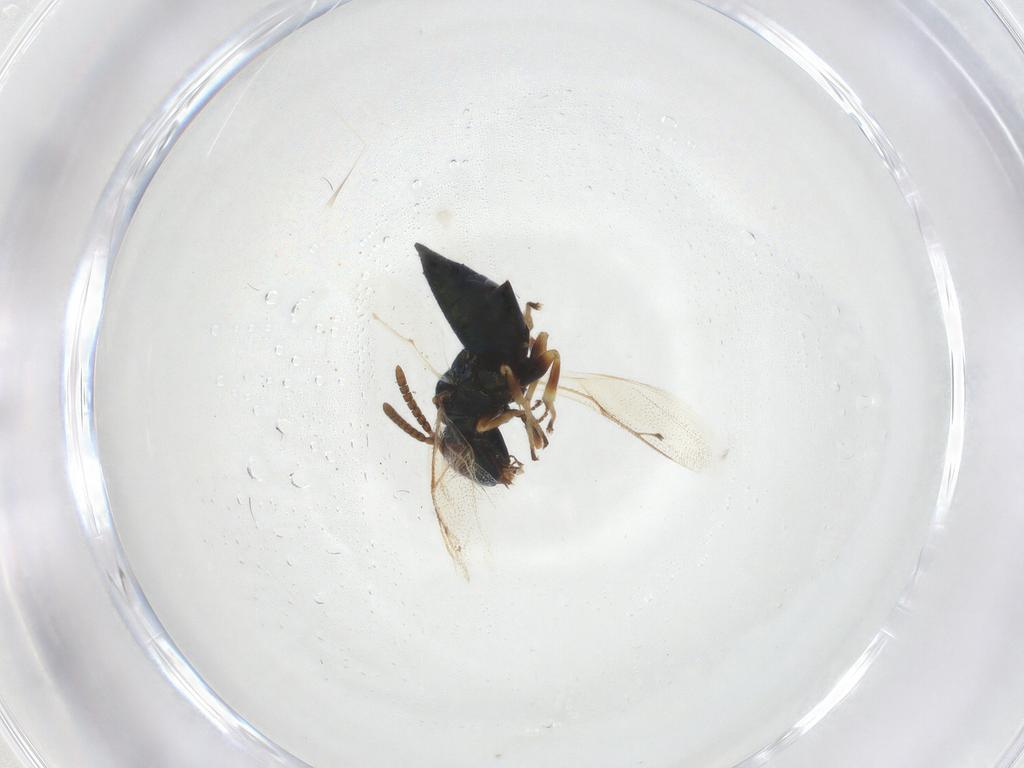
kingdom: Animalia
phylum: Arthropoda
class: Insecta
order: Hymenoptera
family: Pteromalidae
